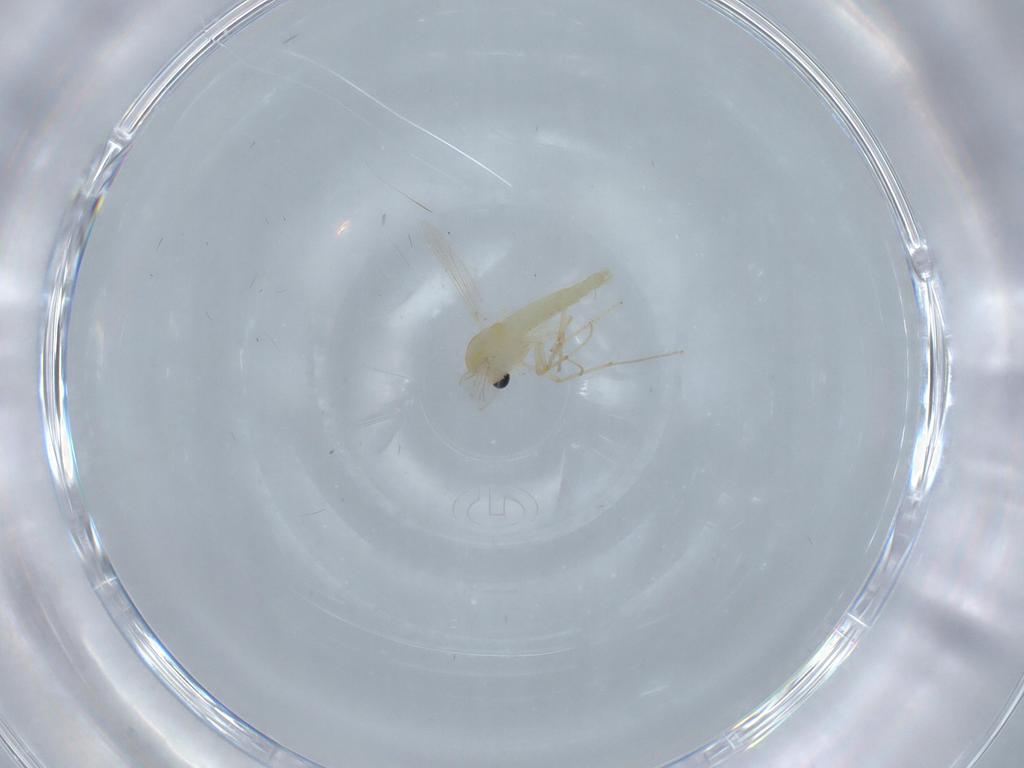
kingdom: Animalia
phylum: Arthropoda
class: Insecta
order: Diptera
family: Chironomidae
